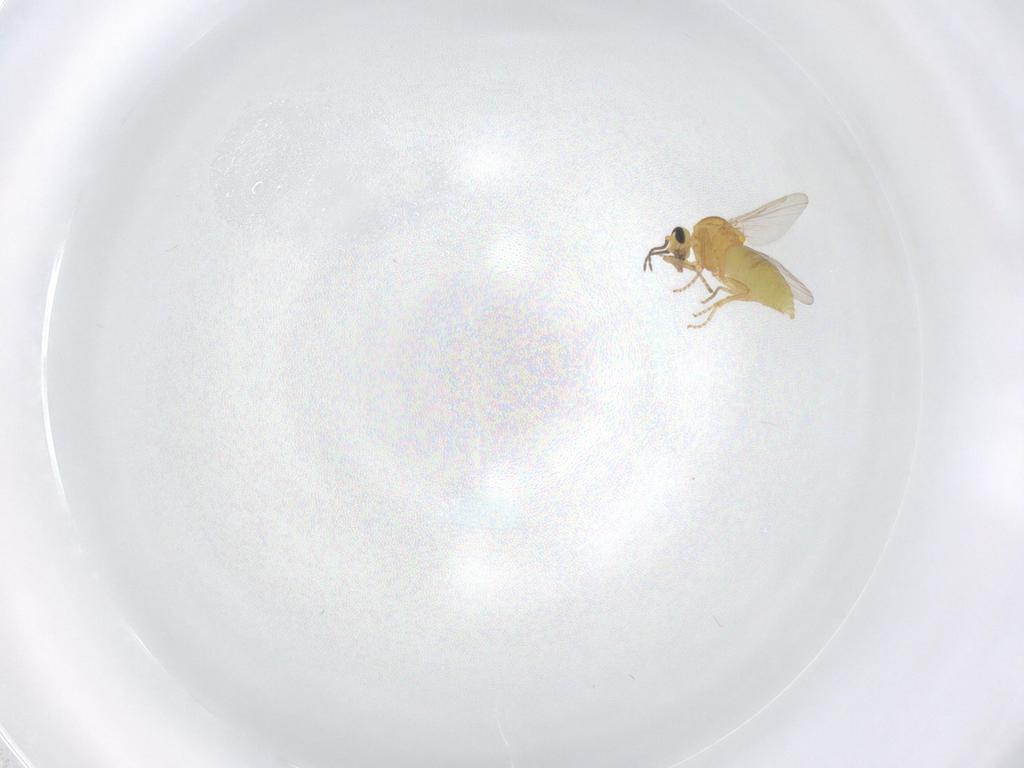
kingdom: Animalia
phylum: Arthropoda
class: Insecta
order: Diptera
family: Ceratopogonidae
